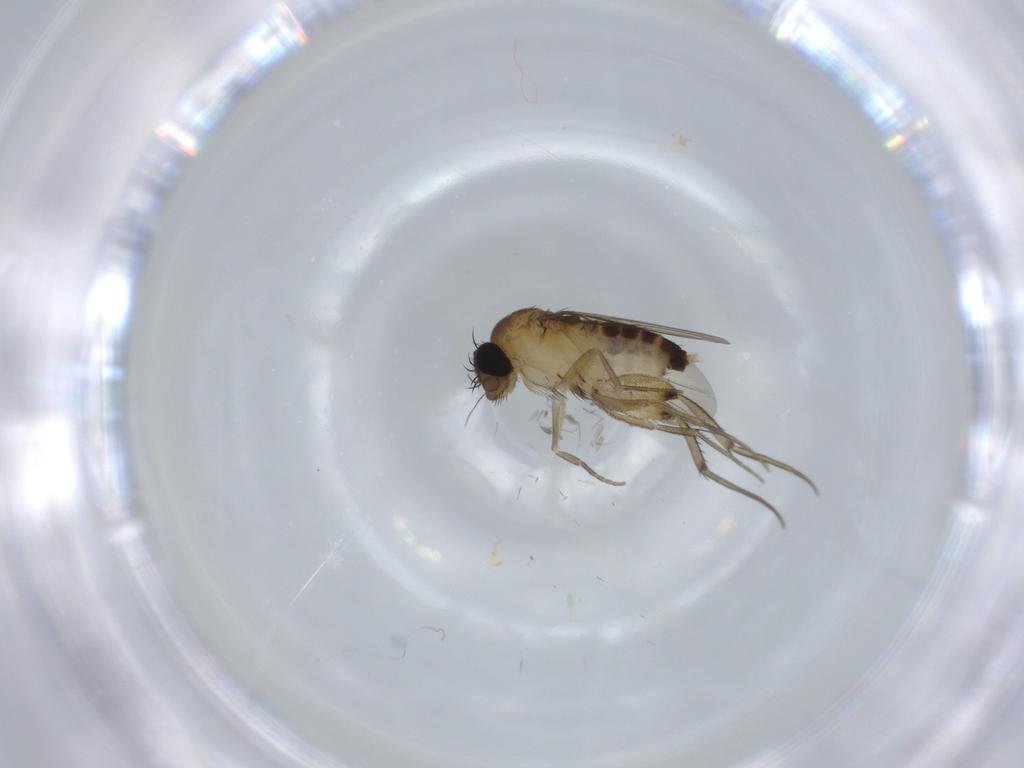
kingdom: Animalia
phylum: Arthropoda
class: Insecta
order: Diptera
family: Phoridae
